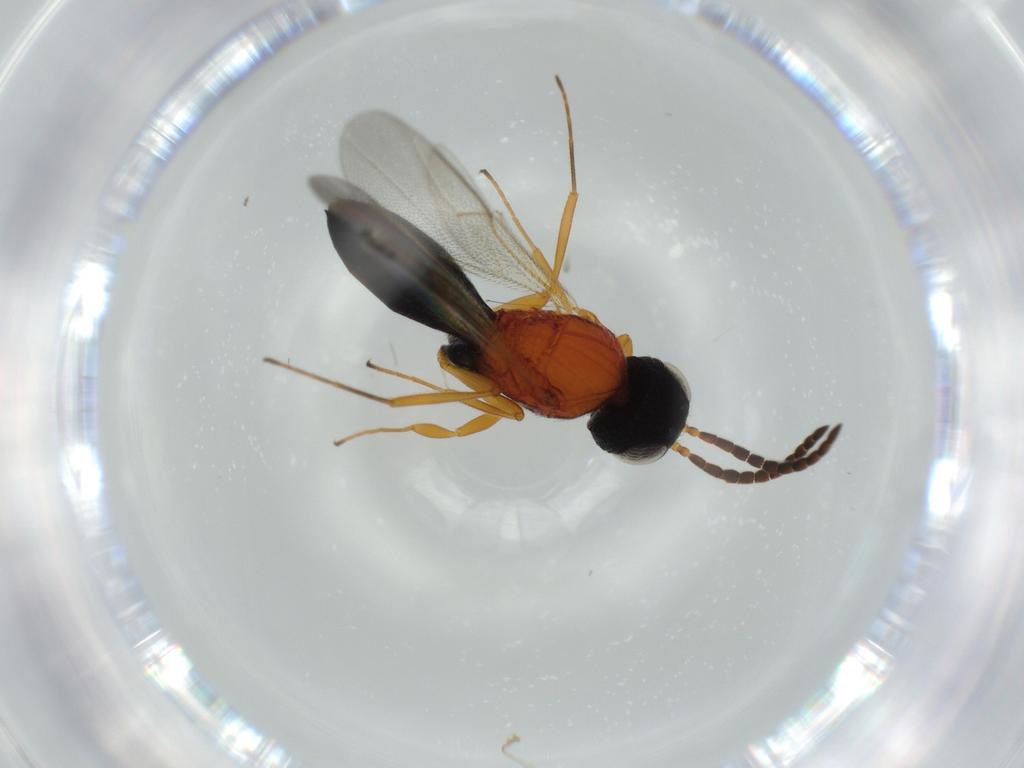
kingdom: Animalia
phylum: Arthropoda
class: Insecta
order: Hymenoptera
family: Scelionidae
